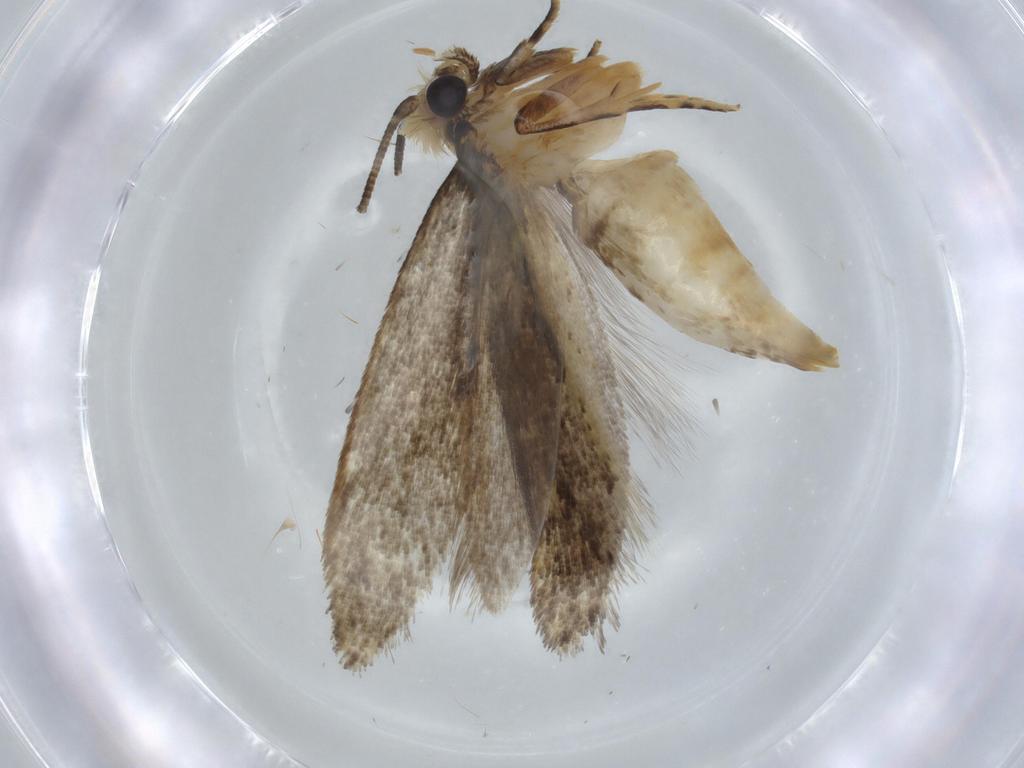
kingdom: Animalia
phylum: Arthropoda
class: Insecta
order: Lepidoptera
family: Tineidae
